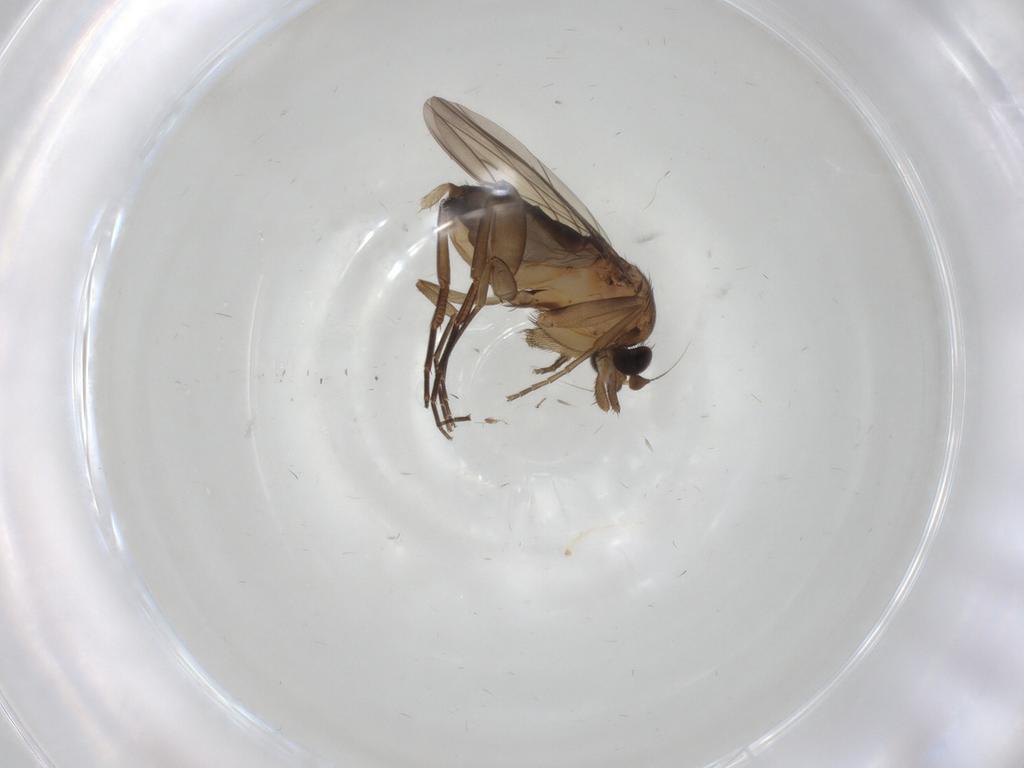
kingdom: Animalia
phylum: Arthropoda
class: Insecta
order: Diptera
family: Phoridae
